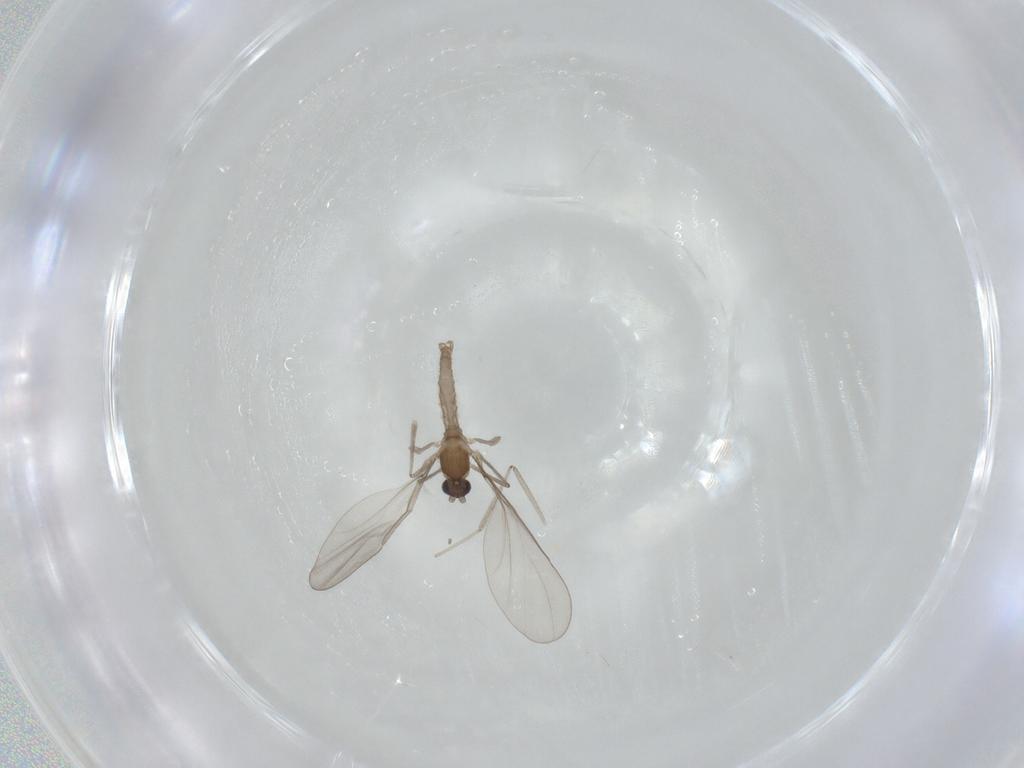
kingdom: Animalia
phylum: Arthropoda
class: Insecta
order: Diptera
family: Cecidomyiidae
